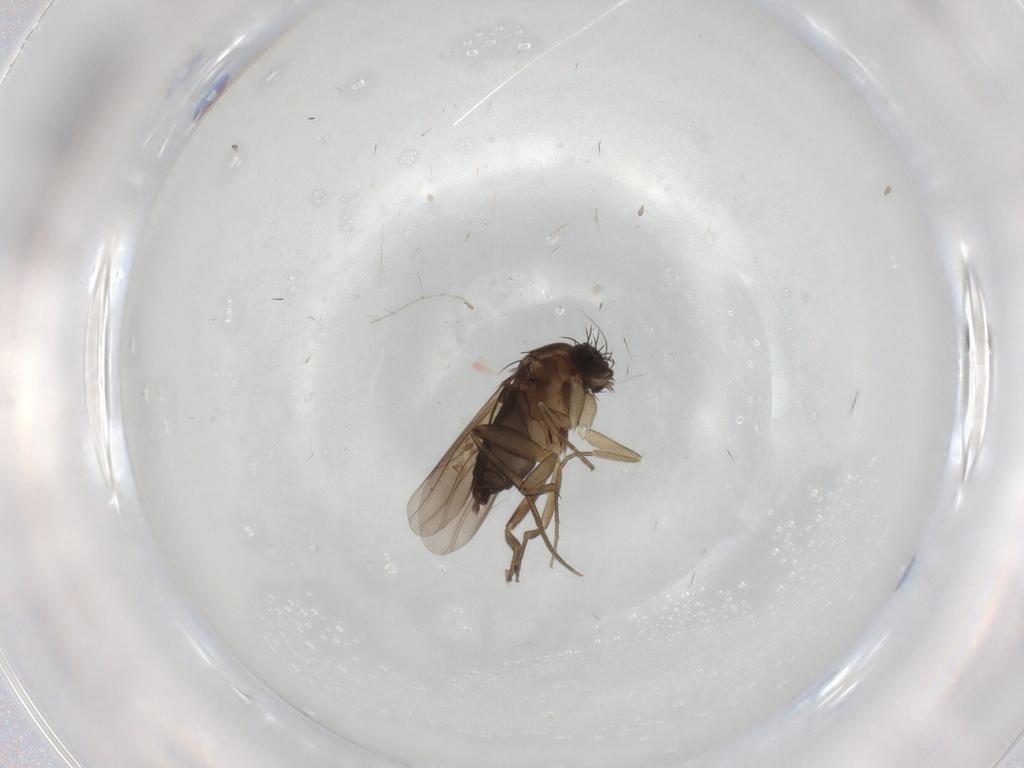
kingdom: Animalia
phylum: Arthropoda
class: Insecta
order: Diptera
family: Phoridae
